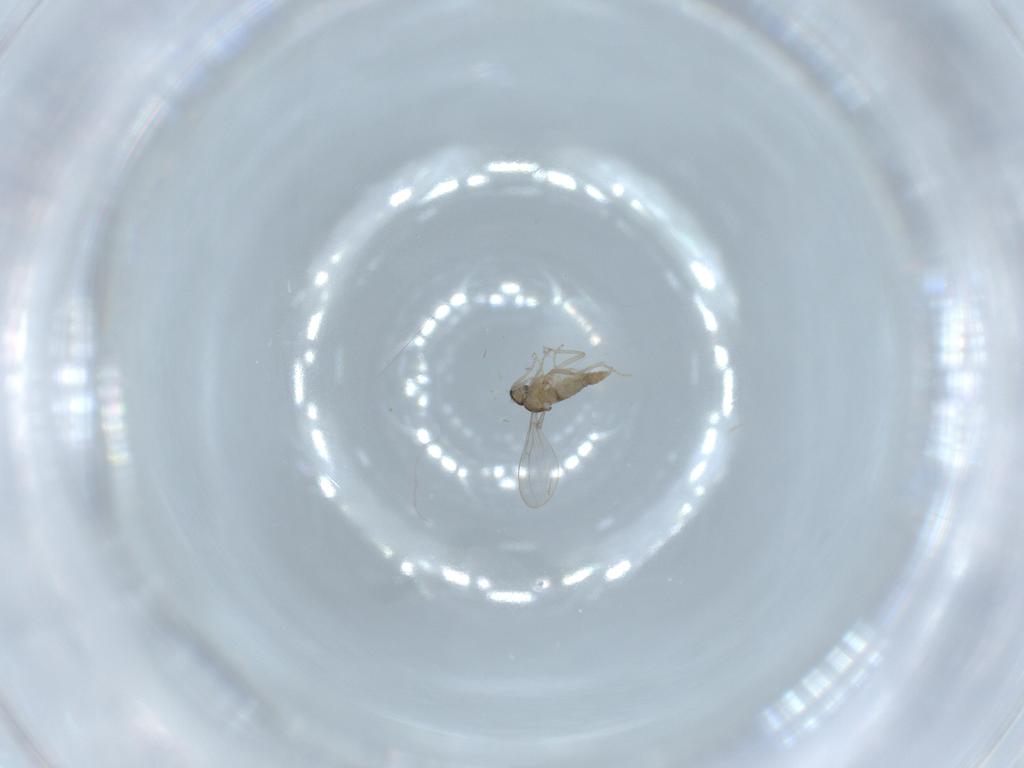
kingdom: Animalia
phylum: Arthropoda
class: Insecta
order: Diptera
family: Cecidomyiidae
